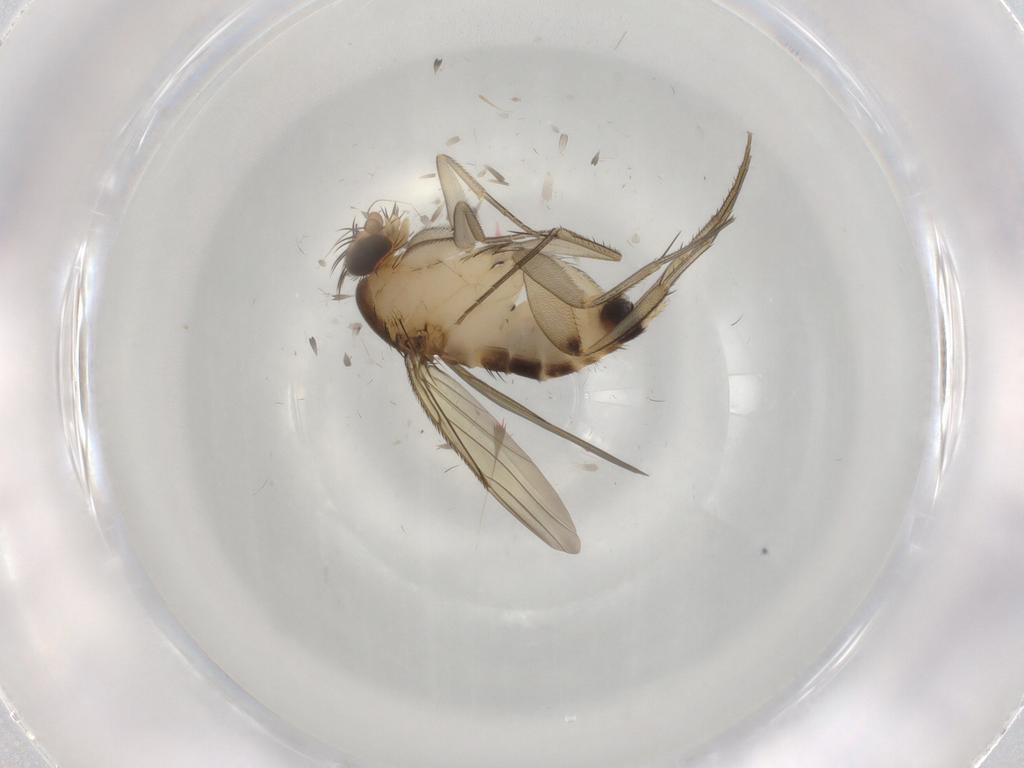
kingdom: Animalia
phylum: Arthropoda
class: Insecta
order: Diptera
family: Phoridae
